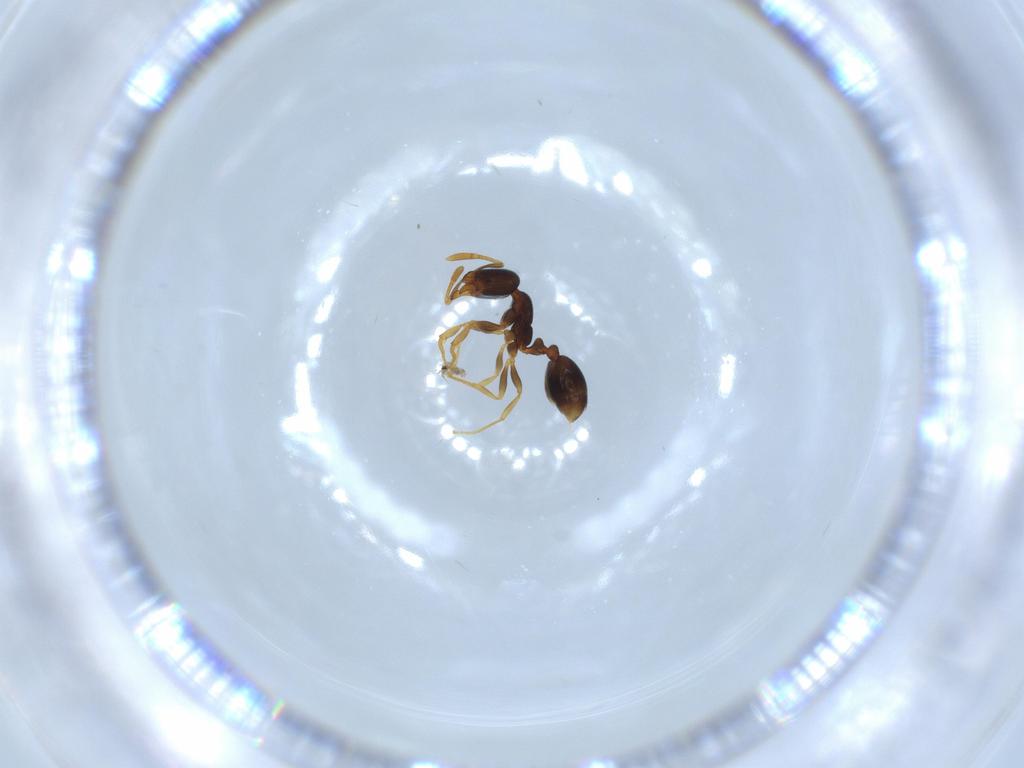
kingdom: Animalia
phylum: Arthropoda
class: Insecta
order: Hymenoptera
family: Formicidae
